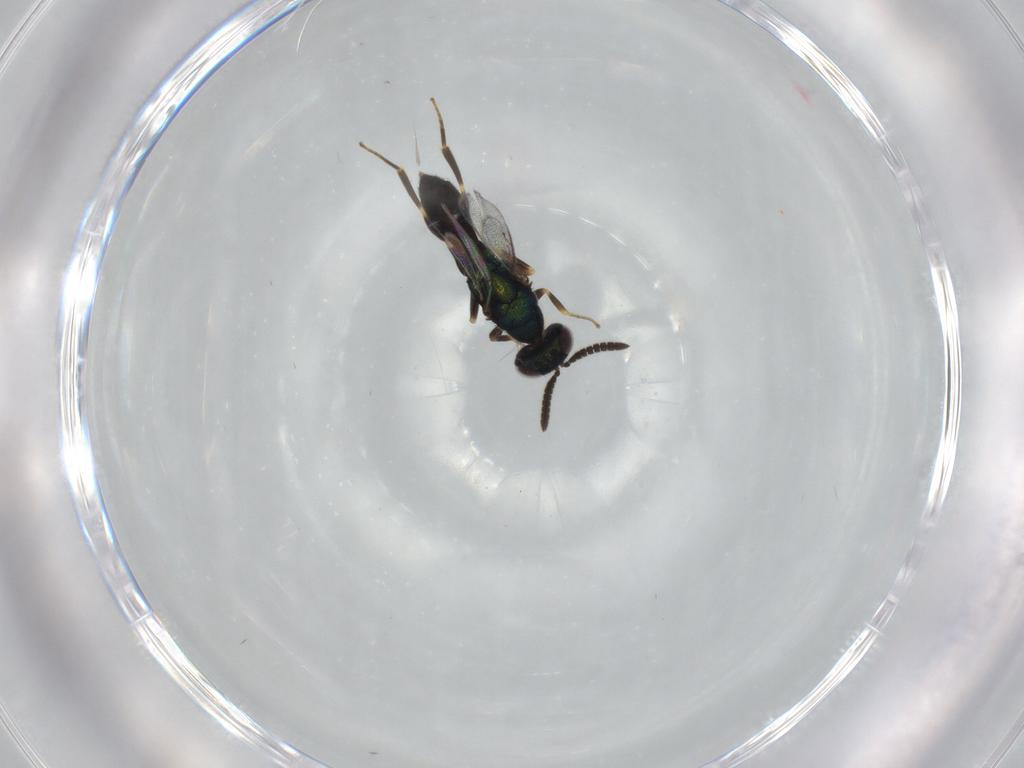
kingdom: Animalia
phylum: Arthropoda
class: Insecta
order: Hymenoptera
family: Cleonyminae
